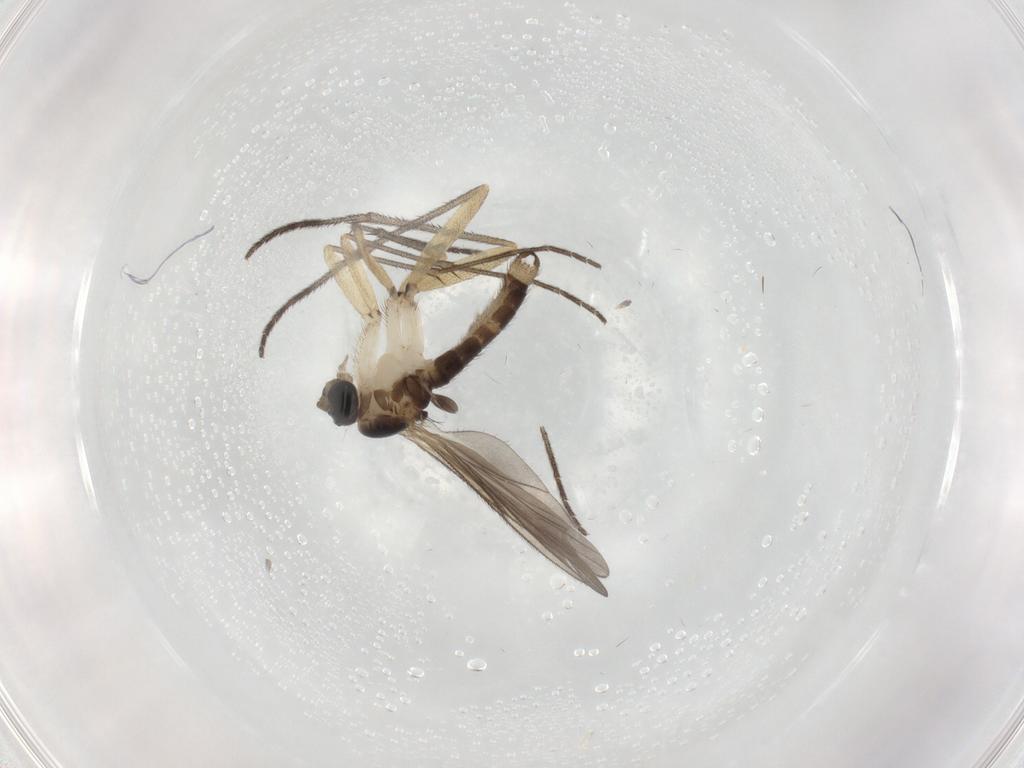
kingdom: Animalia
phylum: Arthropoda
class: Insecta
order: Diptera
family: Sciaridae
